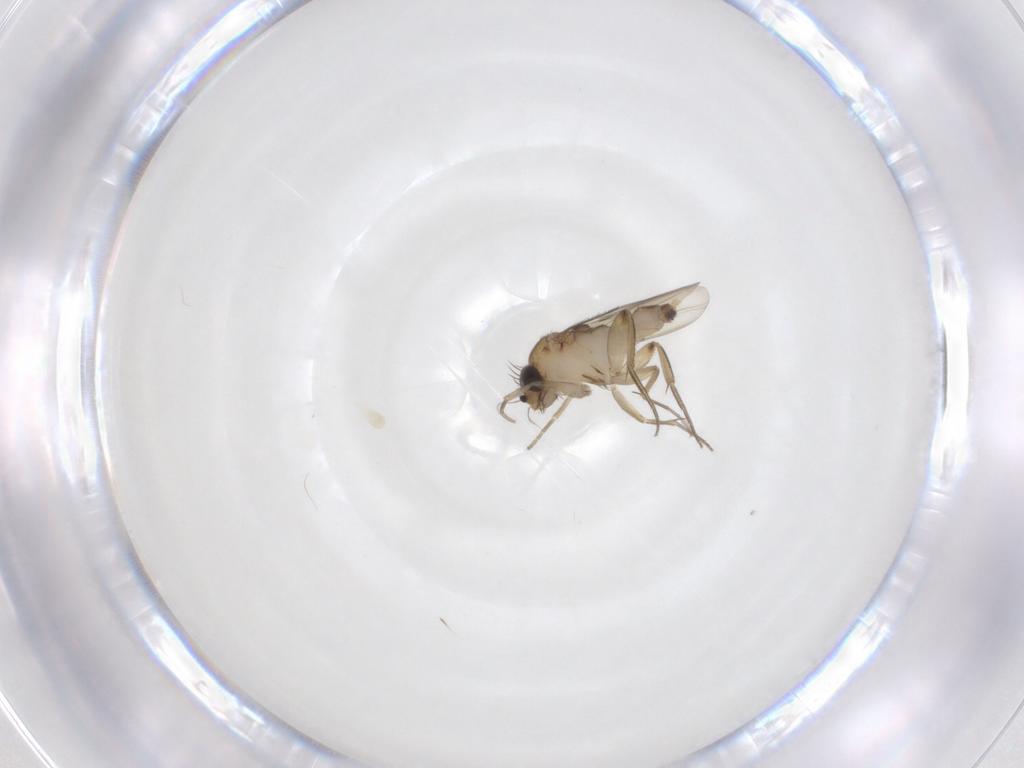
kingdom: Animalia
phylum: Arthropoda
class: Insecta
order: Diptera
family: Phoridae
